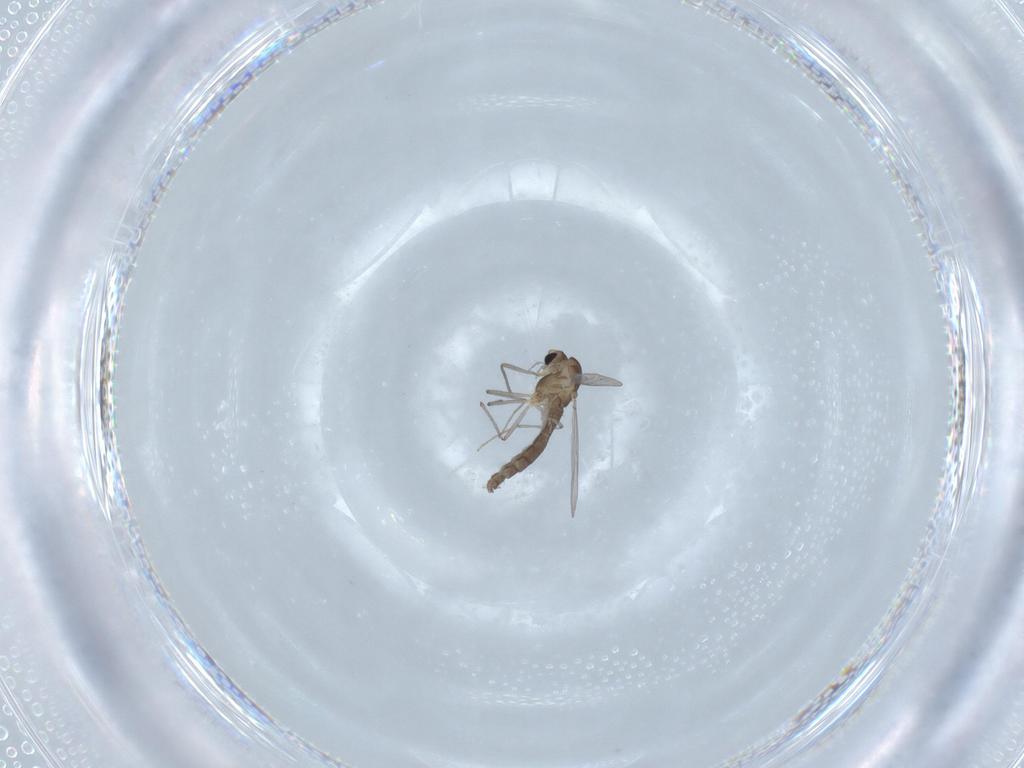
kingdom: Animalia
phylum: Arthropoda
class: Insecta
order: Diptera
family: Chironomidae
